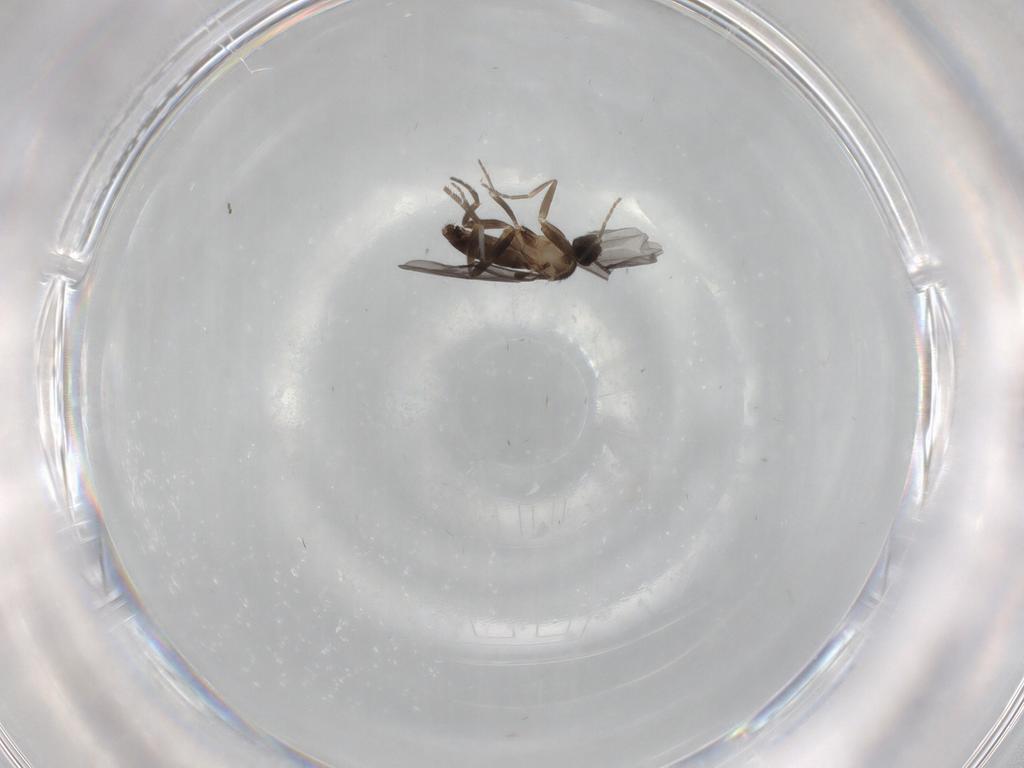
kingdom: Animalia
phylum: Arthropoda
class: Insecta
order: Diptera
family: Phoridae
